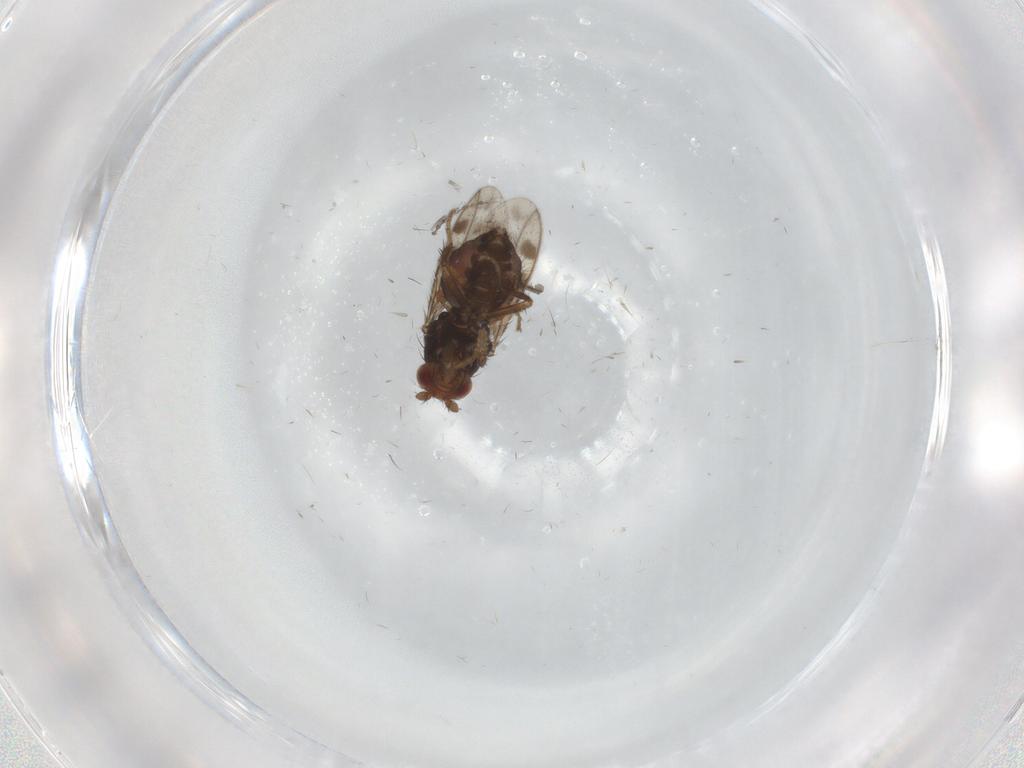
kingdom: Animalia
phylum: Arthropoda
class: Insecta
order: Diptera
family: Sphaeroceridae
